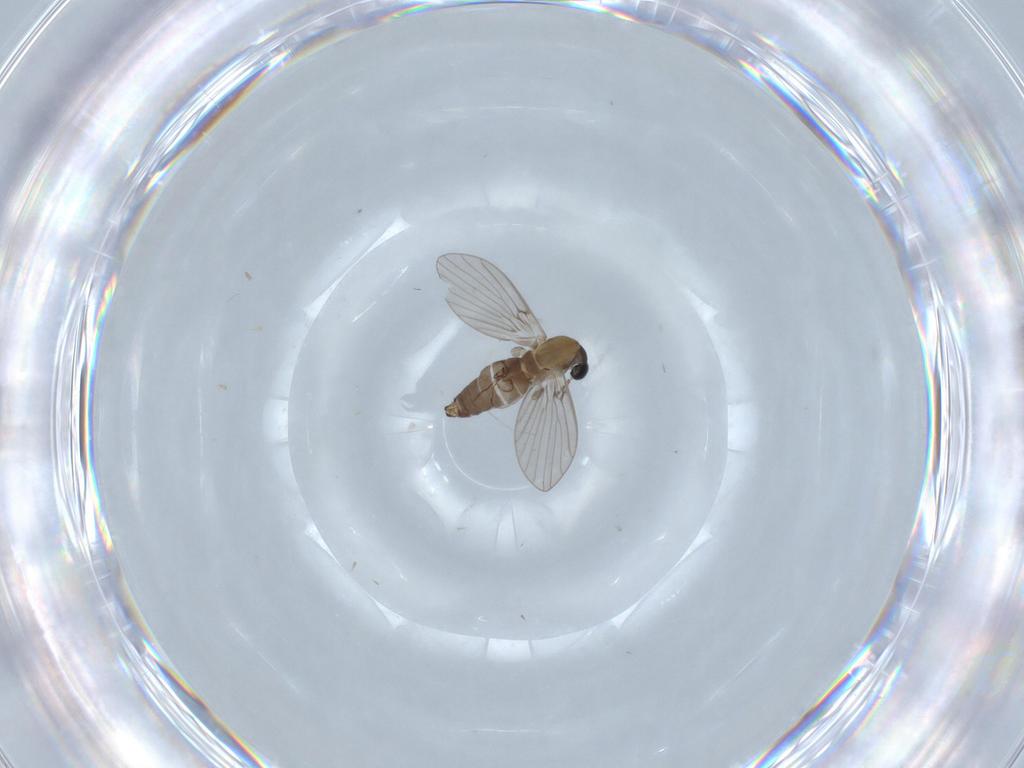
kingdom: Animalia
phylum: Arthropoda
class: Insecta
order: Diptera
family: Psychodidae
